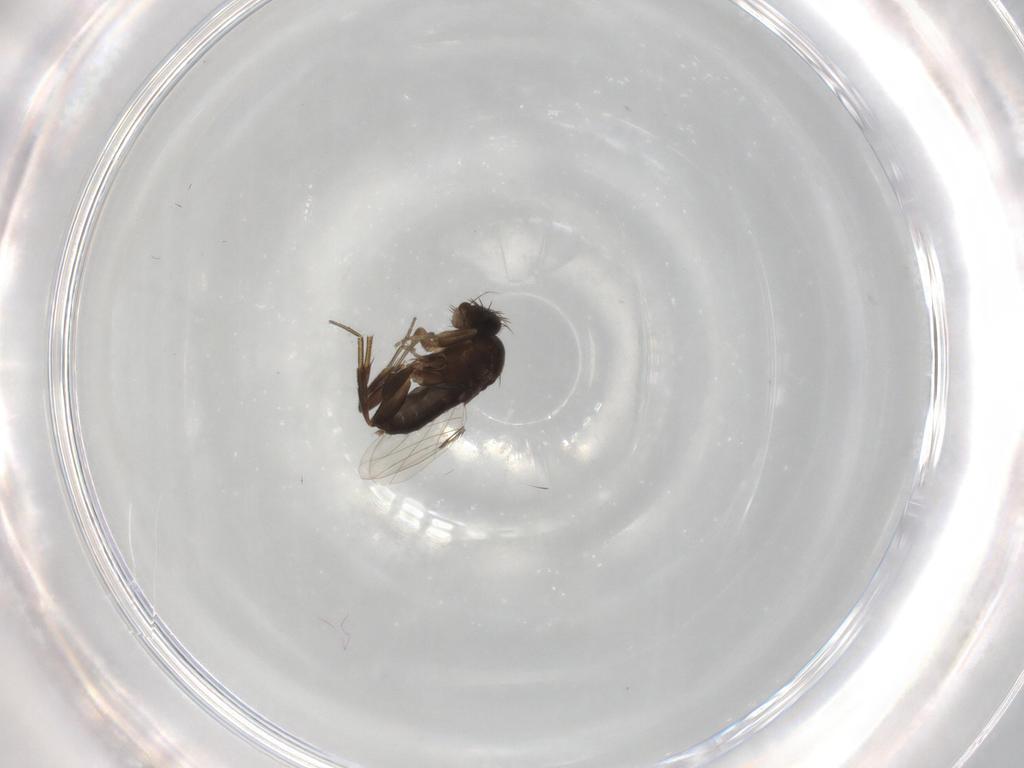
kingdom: Animalia
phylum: Arthropoda
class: Insecta
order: Diptera
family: Phoridae
